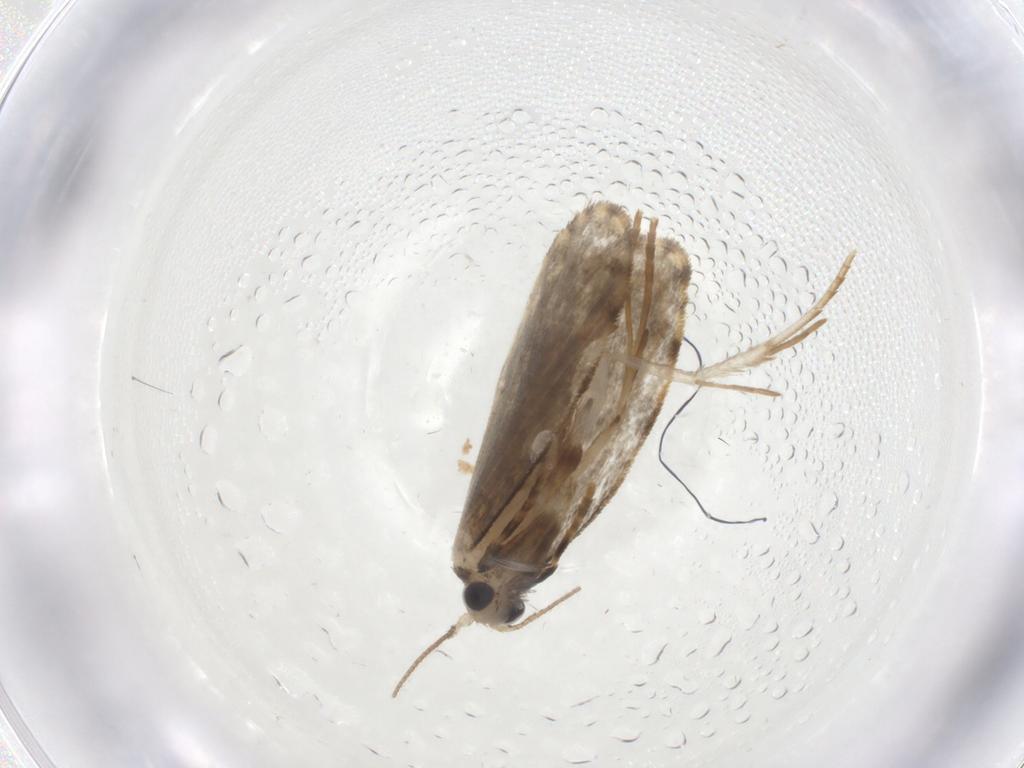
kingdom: Animalia
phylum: Arthropoda
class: Insecta
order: Lepidoptera
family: Psychidae
